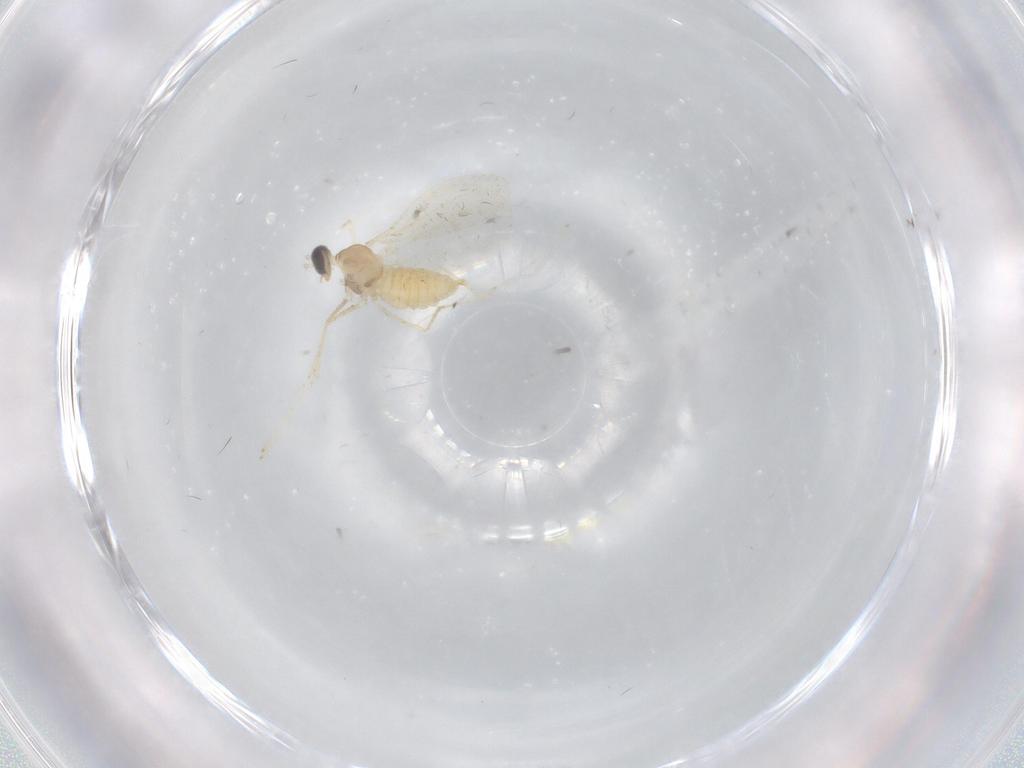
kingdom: Animalia
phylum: Arthropoda
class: Insecta
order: Diptera
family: Cecidomyiidae
